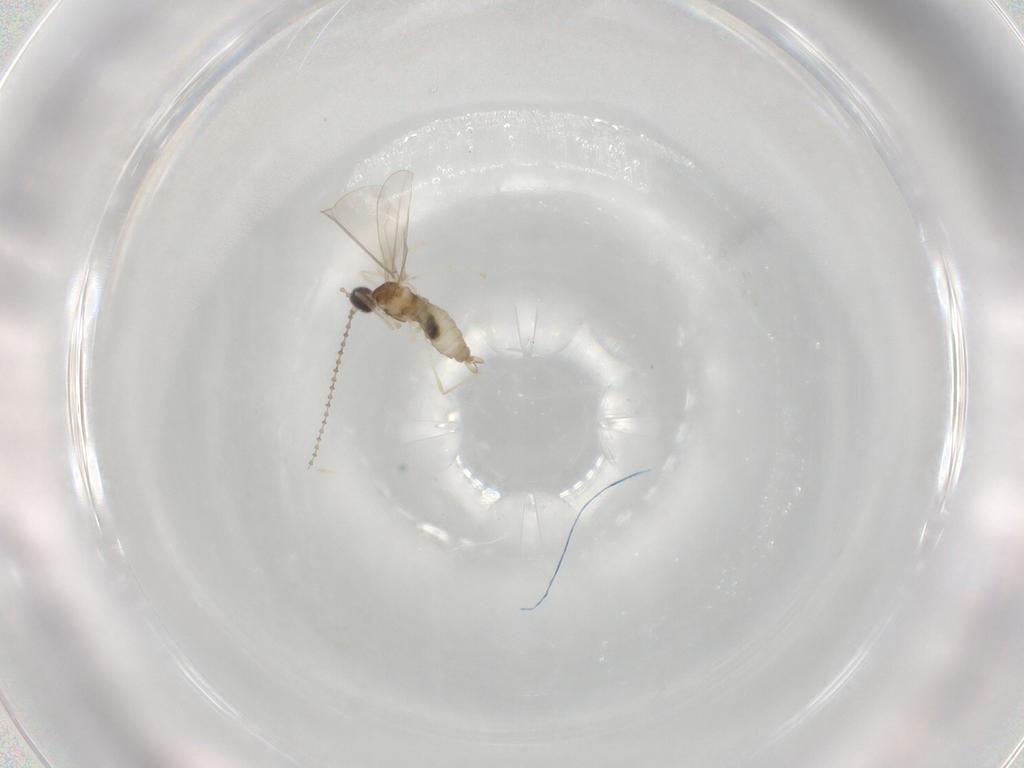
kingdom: Animalia
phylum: Arthropoda
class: Insecta
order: Diptera
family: Cecidomyiidae
